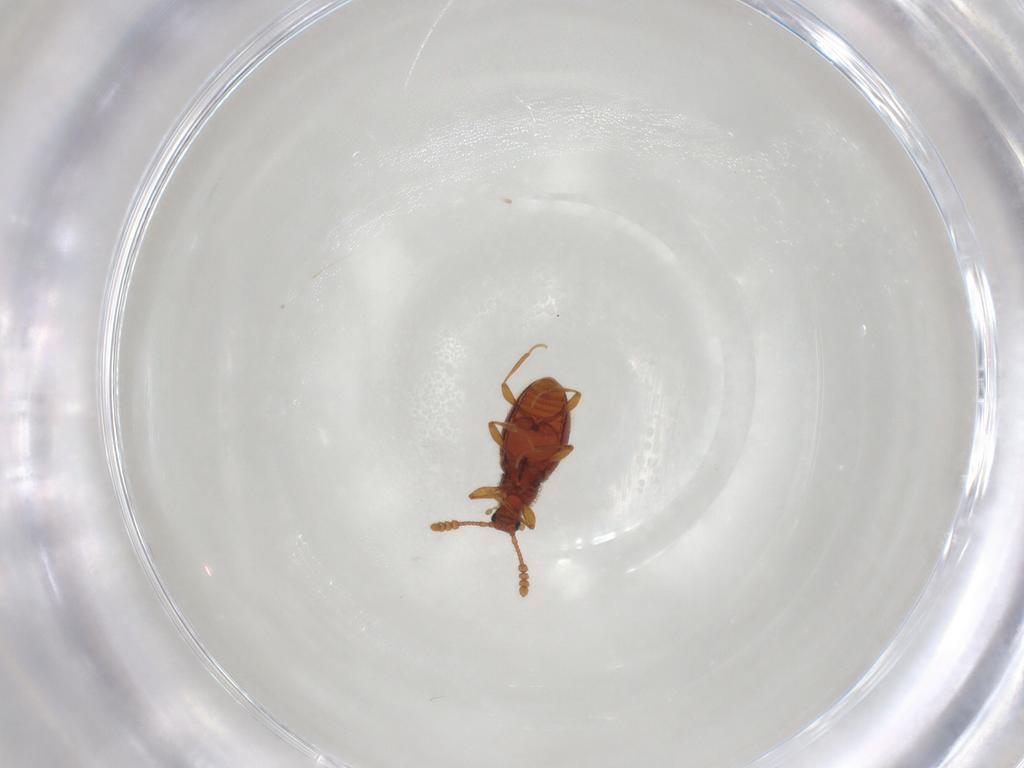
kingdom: Animalia
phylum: Arthropoda
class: Insecta
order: Coleoptera
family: Staphylinidae
